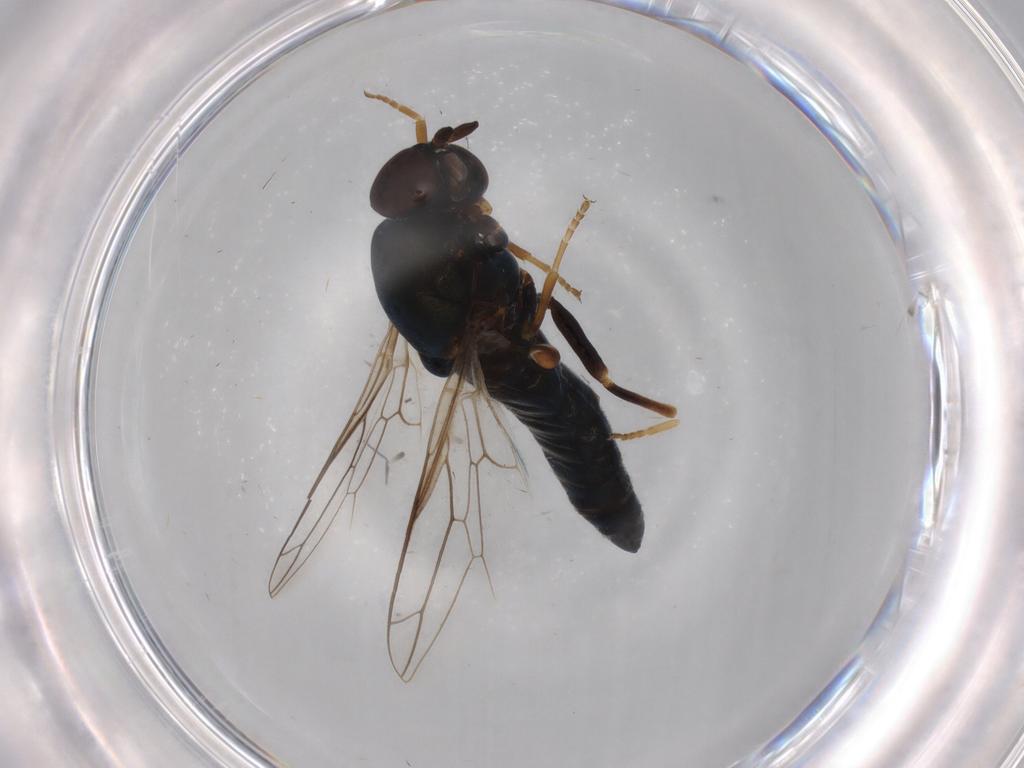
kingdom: Animalia
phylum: Arthropoda
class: Insecta
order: Diptera
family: Scenopinidae
